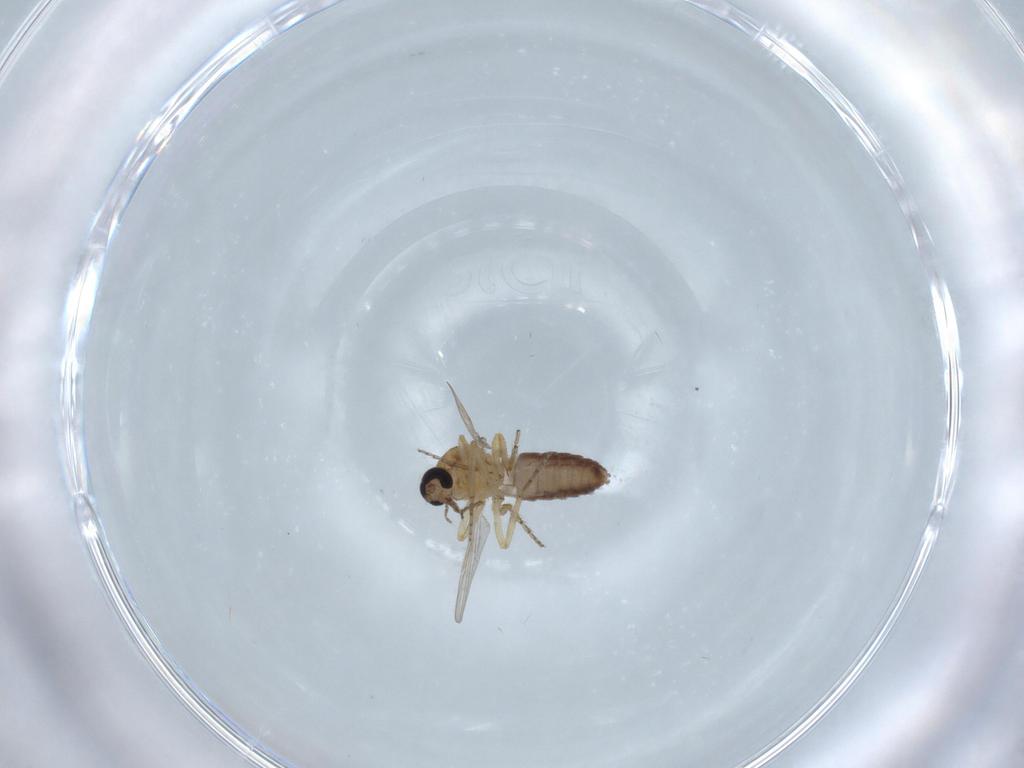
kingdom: Animalia
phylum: Arthropoda
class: Insecta
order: Diptera
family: Ceratopogonidae
